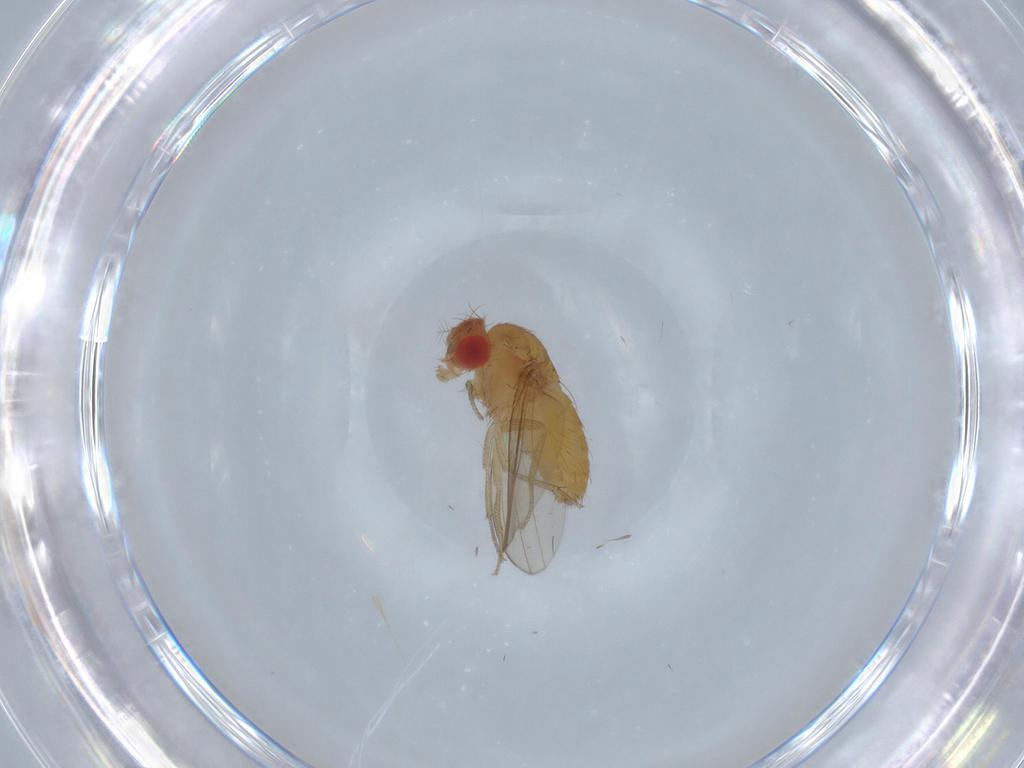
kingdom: Animalia
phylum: Arthropoda
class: Insecta
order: Diptera
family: Drosophilidae
